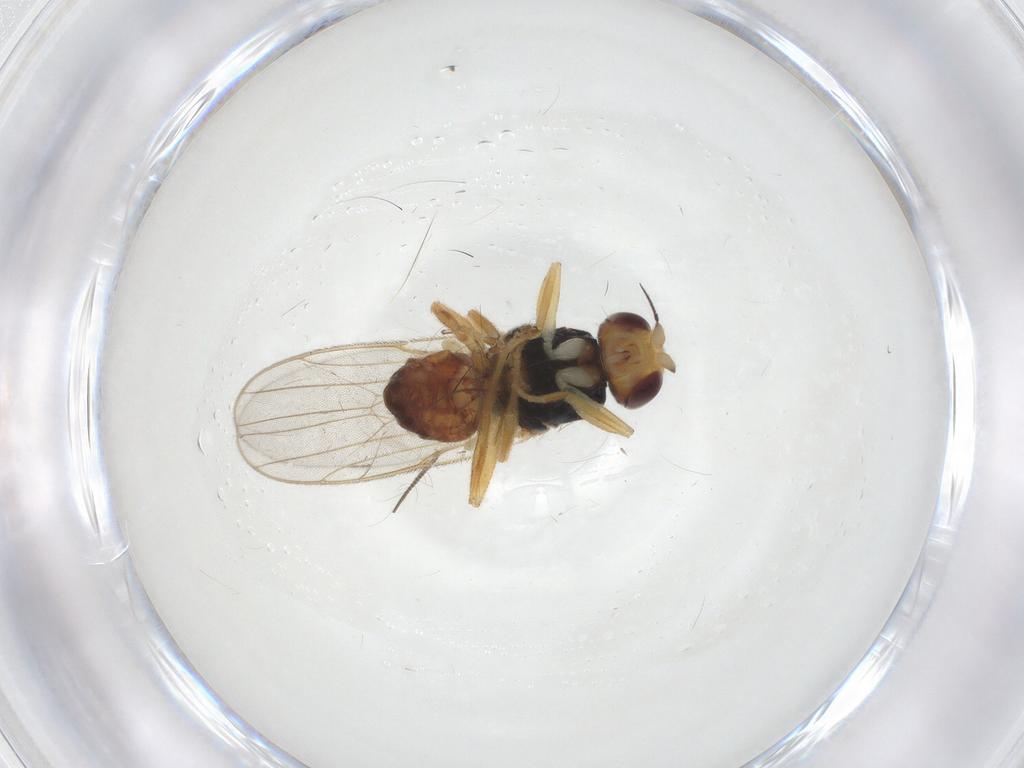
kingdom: Animalia
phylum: Arthropoda
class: Insecta
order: Diptera
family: Chloropidae
